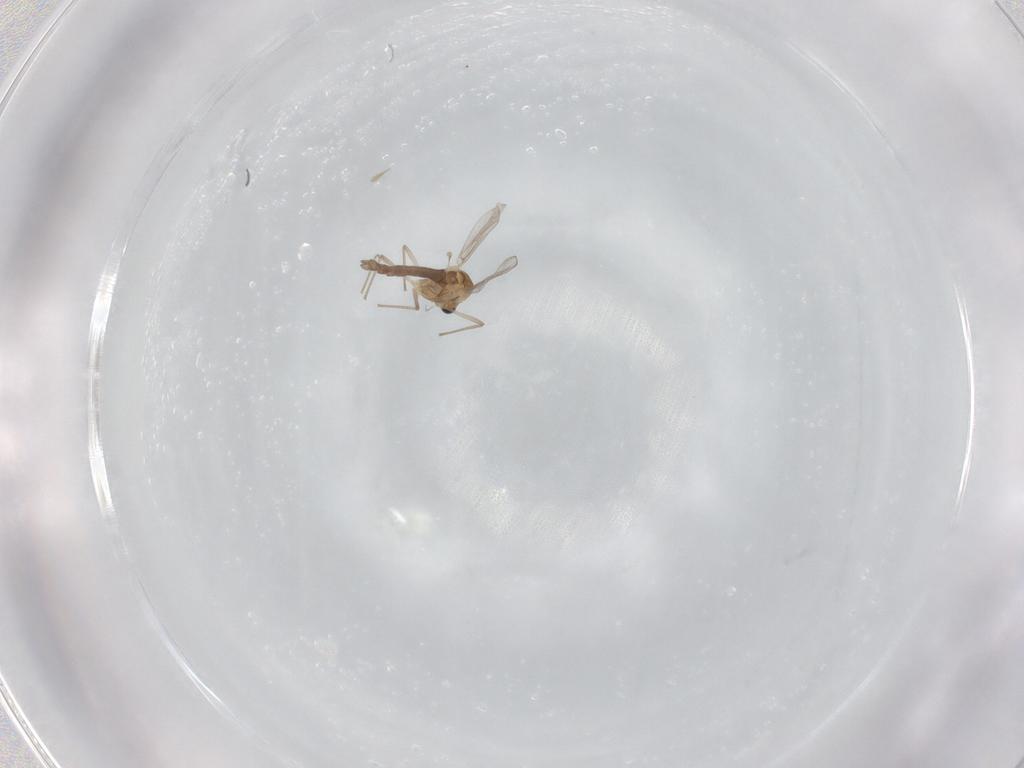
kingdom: Animalia
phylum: Arthropoda
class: Insecta
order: Diptera
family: Chironomidae
